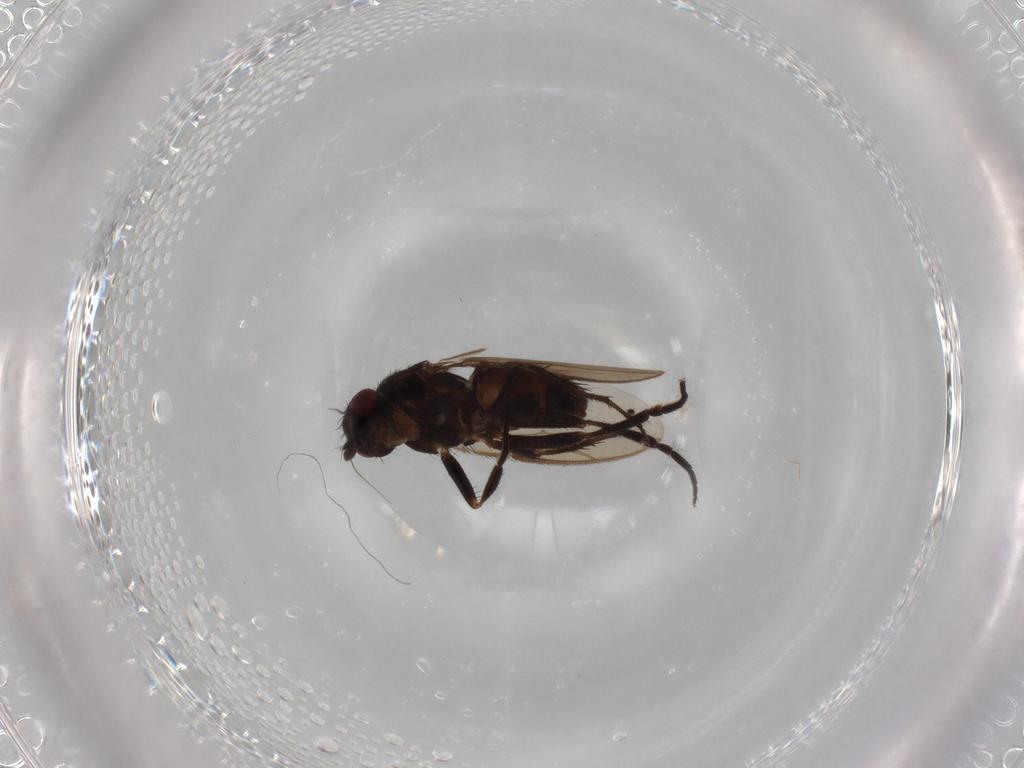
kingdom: Animalia
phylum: Arthropoda
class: Insecta
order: Diptera
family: Sphaeroceridae
